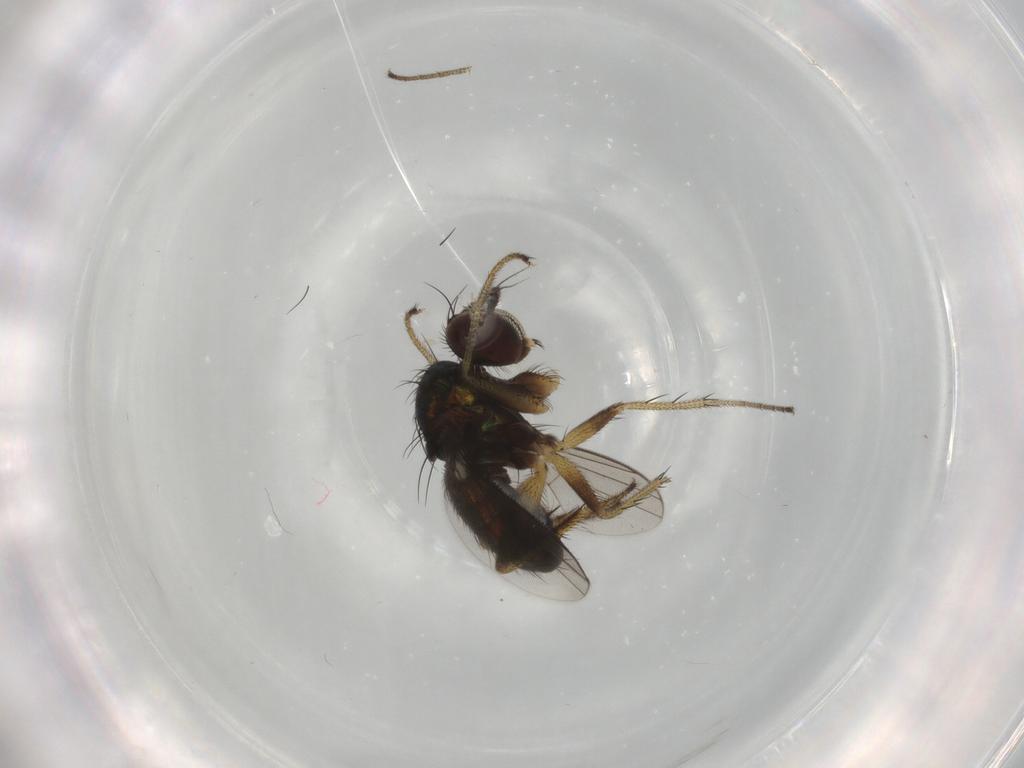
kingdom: Animalia
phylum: Arthropoda
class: Insecta
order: Diptera
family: Dolichopodidae
